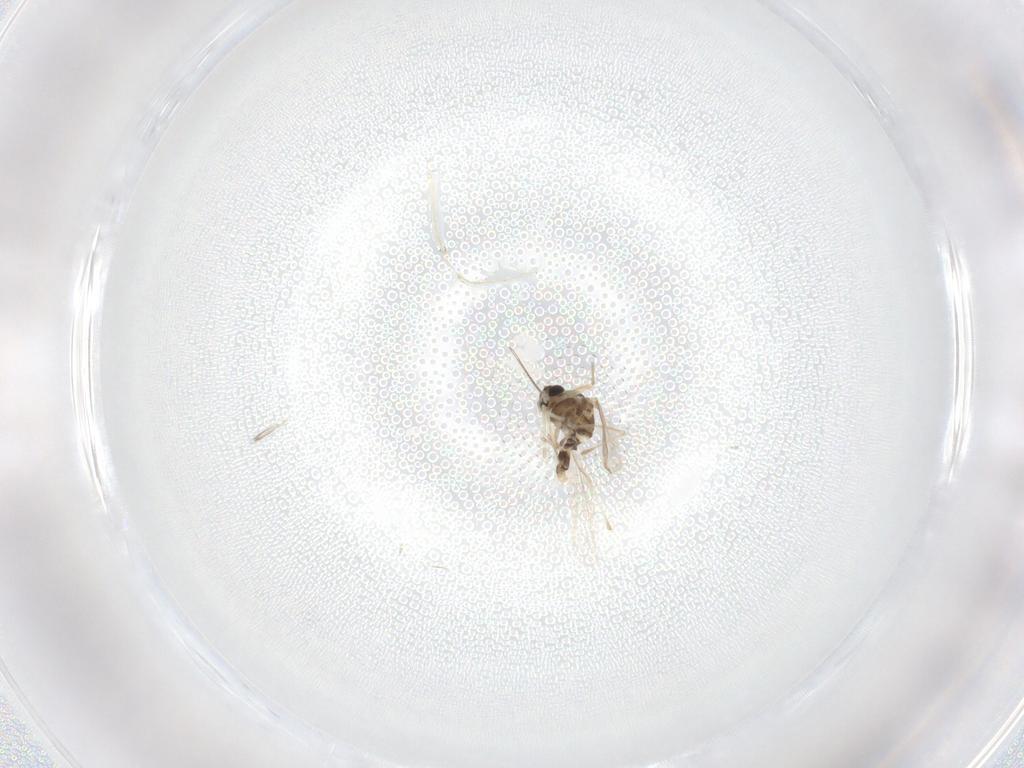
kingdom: Animalia
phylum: Arthropoda
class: Insecta
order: Diptera
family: Chironomidae
